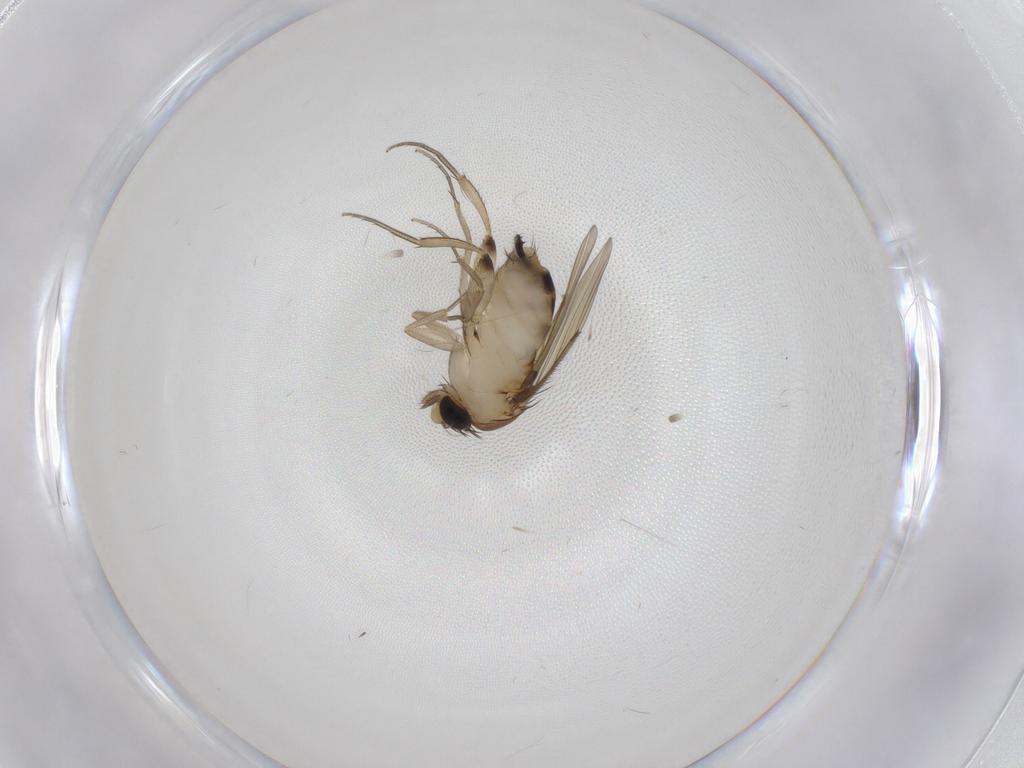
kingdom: Animalia
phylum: Arthropoda
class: Insecta
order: Diptera
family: Phoridae
